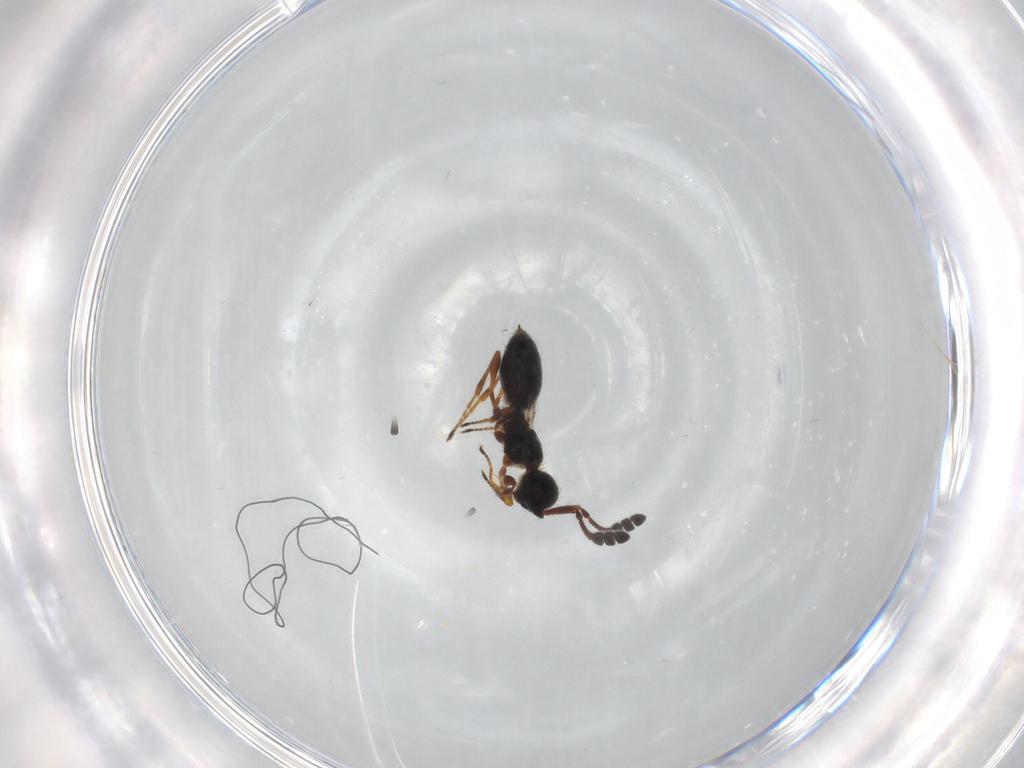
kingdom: Animalia
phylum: Arthropoda
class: Insecta
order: Hymenoptera
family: Diapriidae
